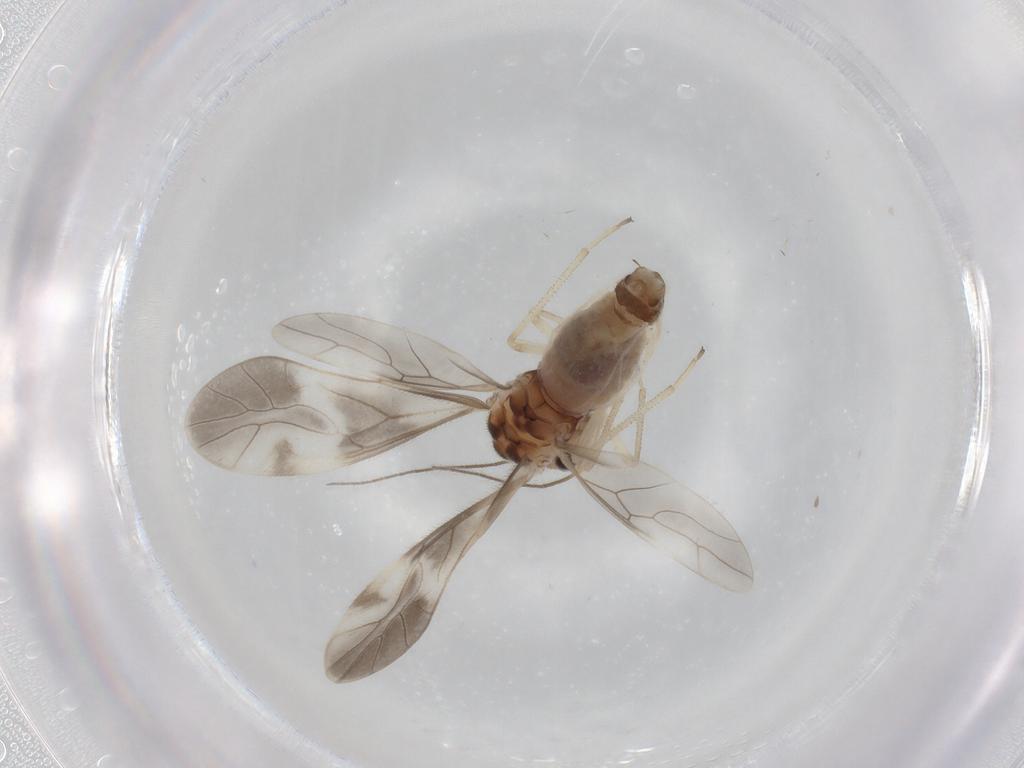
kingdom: Animalia
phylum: Arthropoda
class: Insecta
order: Psocodea
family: Caeciliusidae
